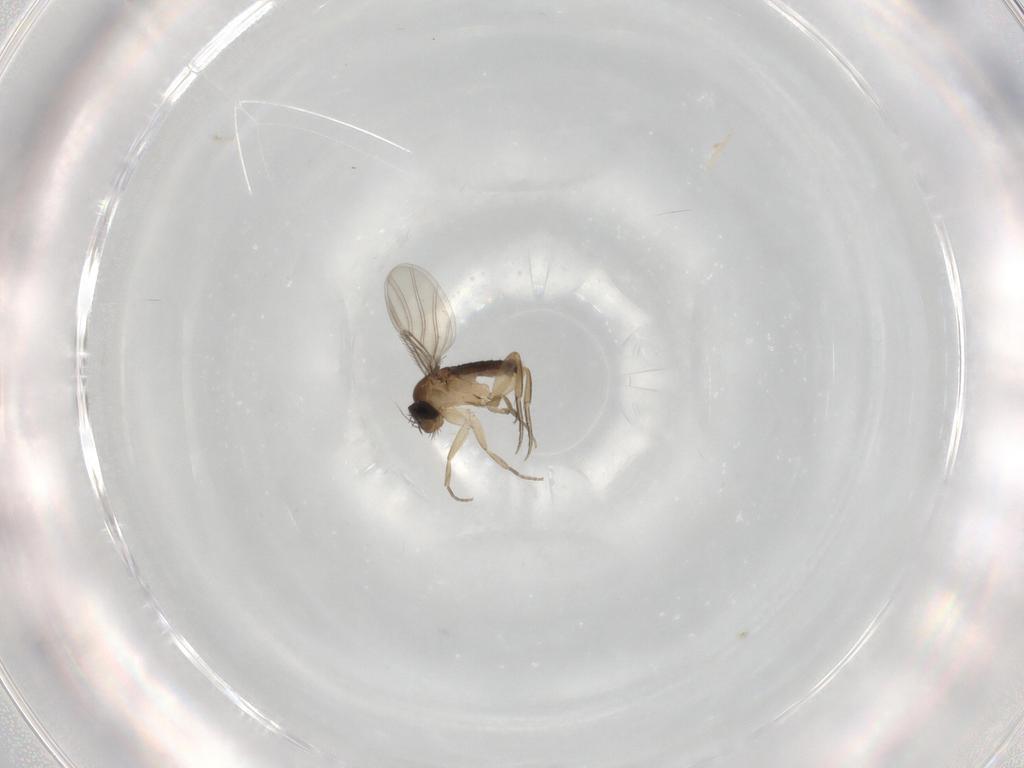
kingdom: Animalia
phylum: Arthropoda
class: Insecta
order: Diptera
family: Phoridae
